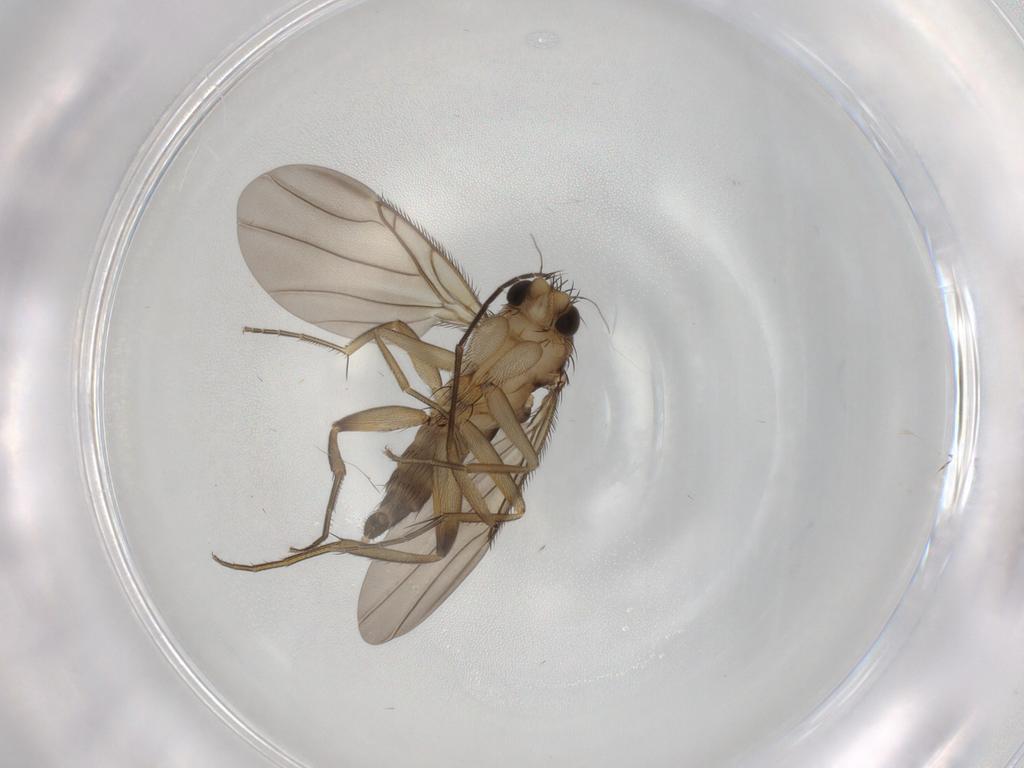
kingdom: Animalia
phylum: Arthropoda
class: Insecta
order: Diptera
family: Phoridae
